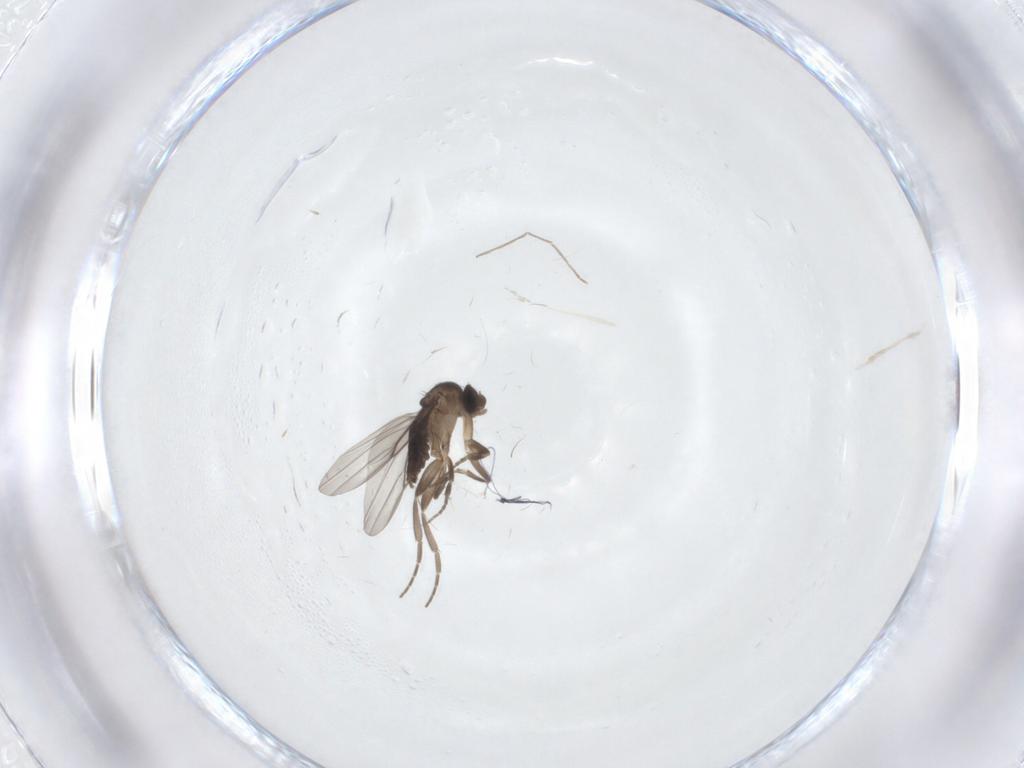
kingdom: Animalia
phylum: Arthropoda
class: Insecta
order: Diptera
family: Phoridae
